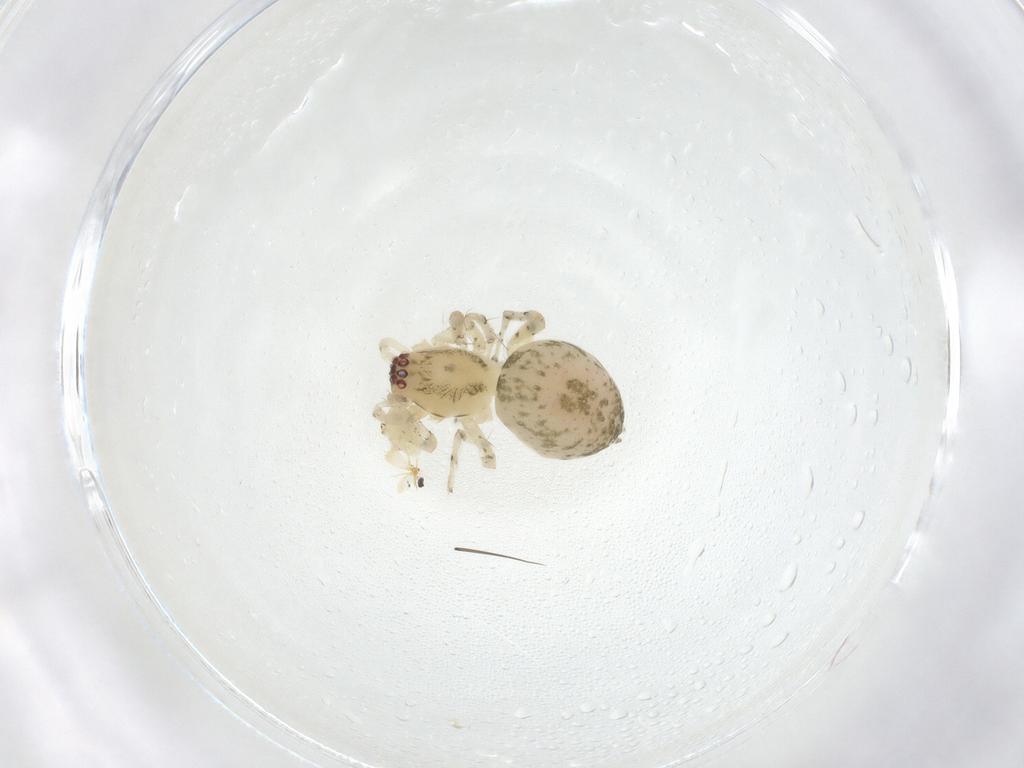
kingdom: Animalia
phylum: Arthropoda
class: Arachnida
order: Araneae
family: Anyphaenidae
